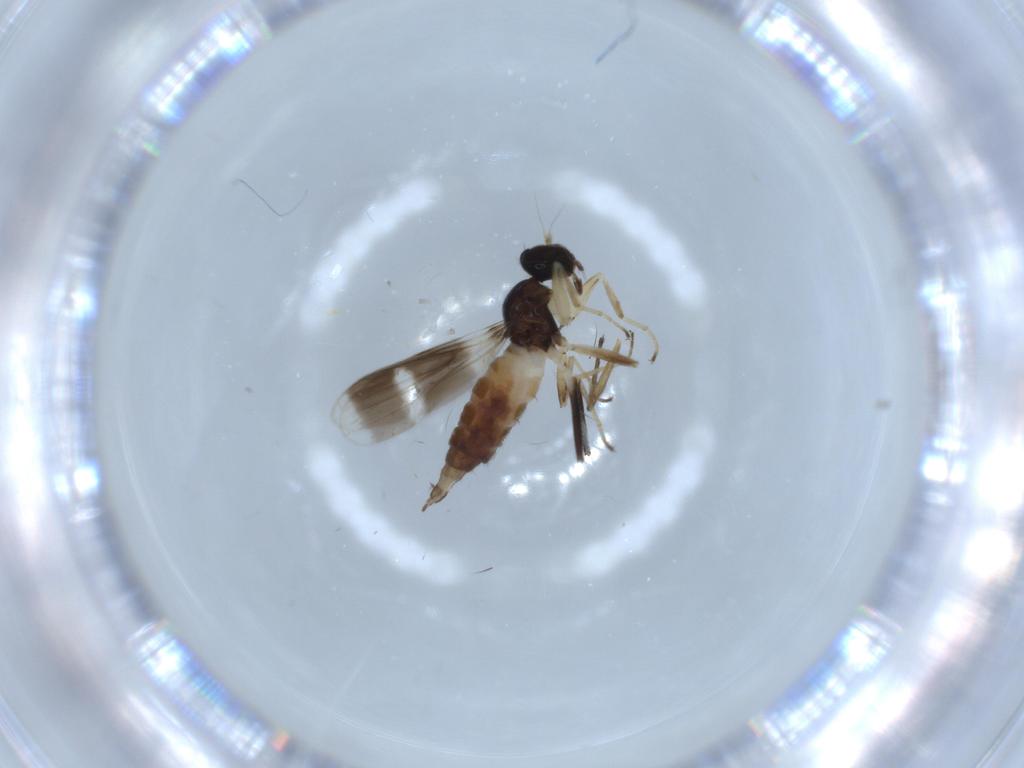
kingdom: Animalia
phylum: Arthropoda
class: Insecta
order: Diptera
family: Hybotidae
